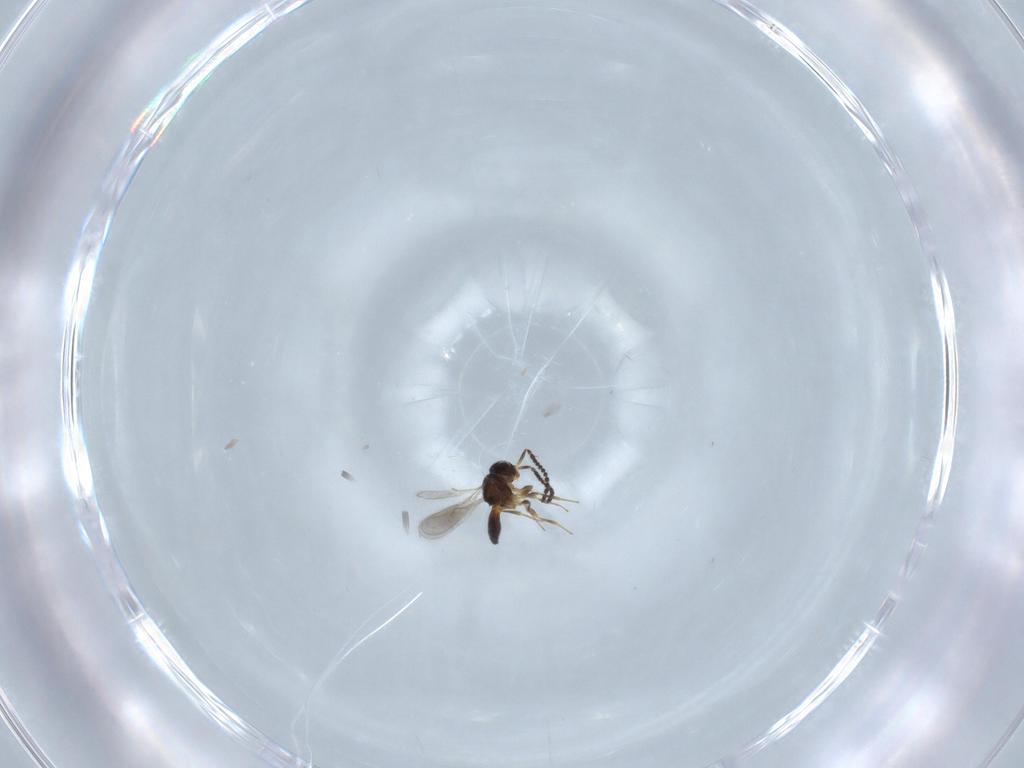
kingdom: Animalia
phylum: Arthropoda
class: Insecta
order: Hymenoptera
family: Scelionidae
